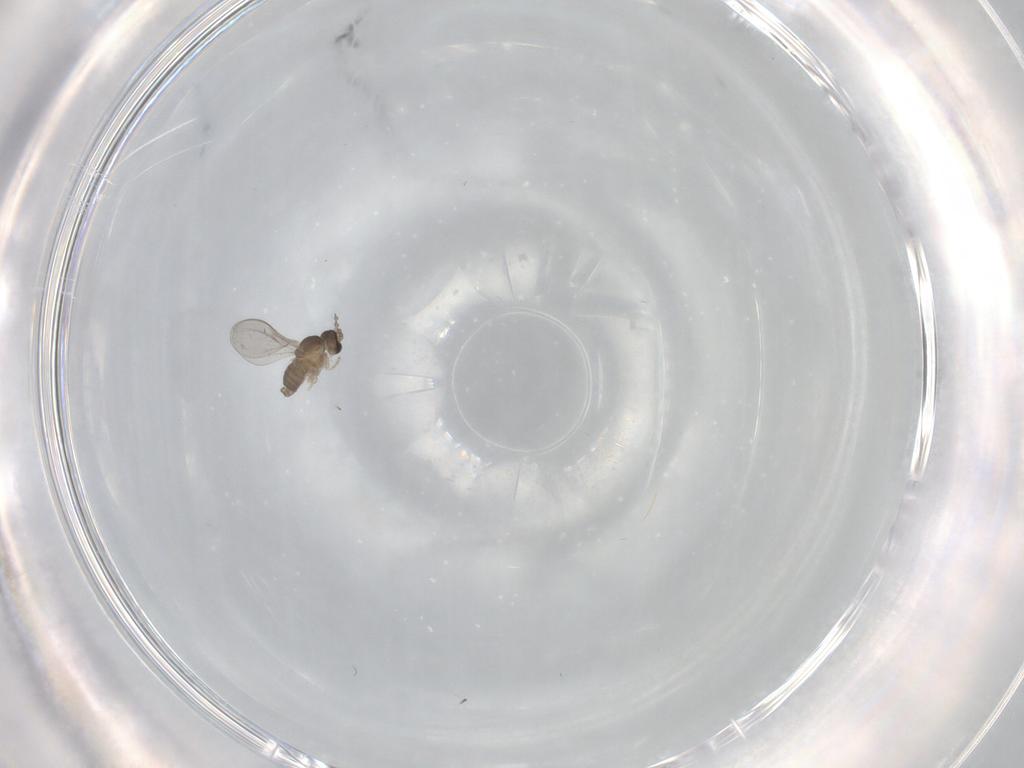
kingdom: Animalia
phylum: Arthropoda
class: Insecta
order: Diptera
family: Cecidomyiidae
